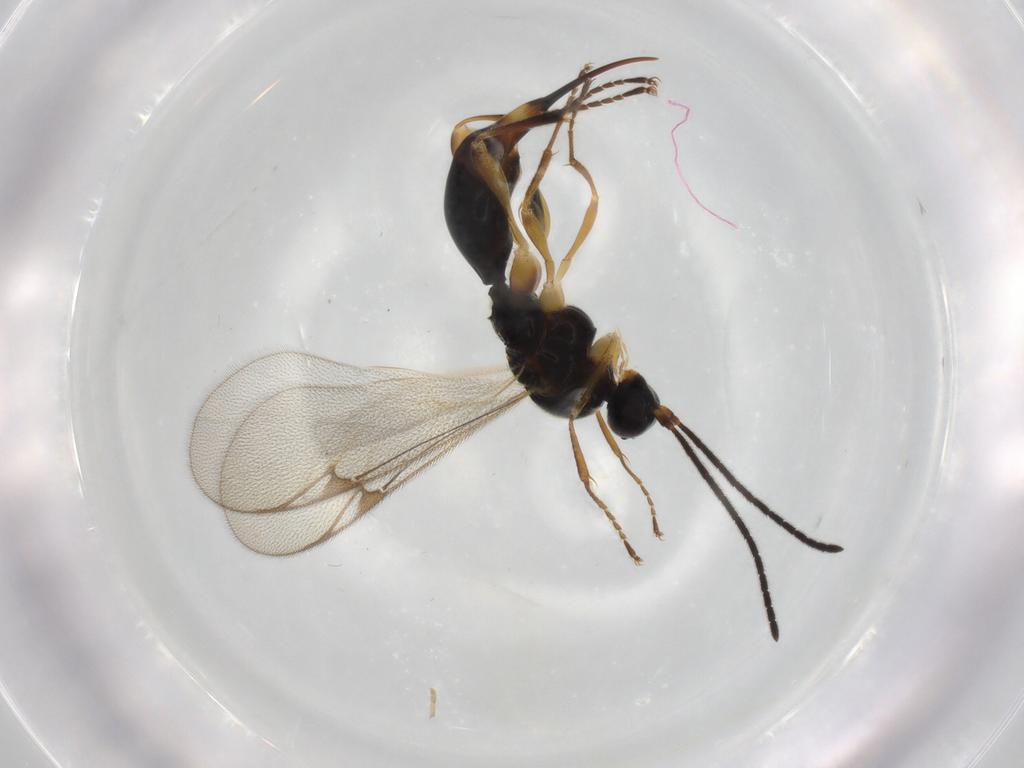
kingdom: Animalia
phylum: Arthropoda
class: Insecta
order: Hymenoptera
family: Proctotrupidae
